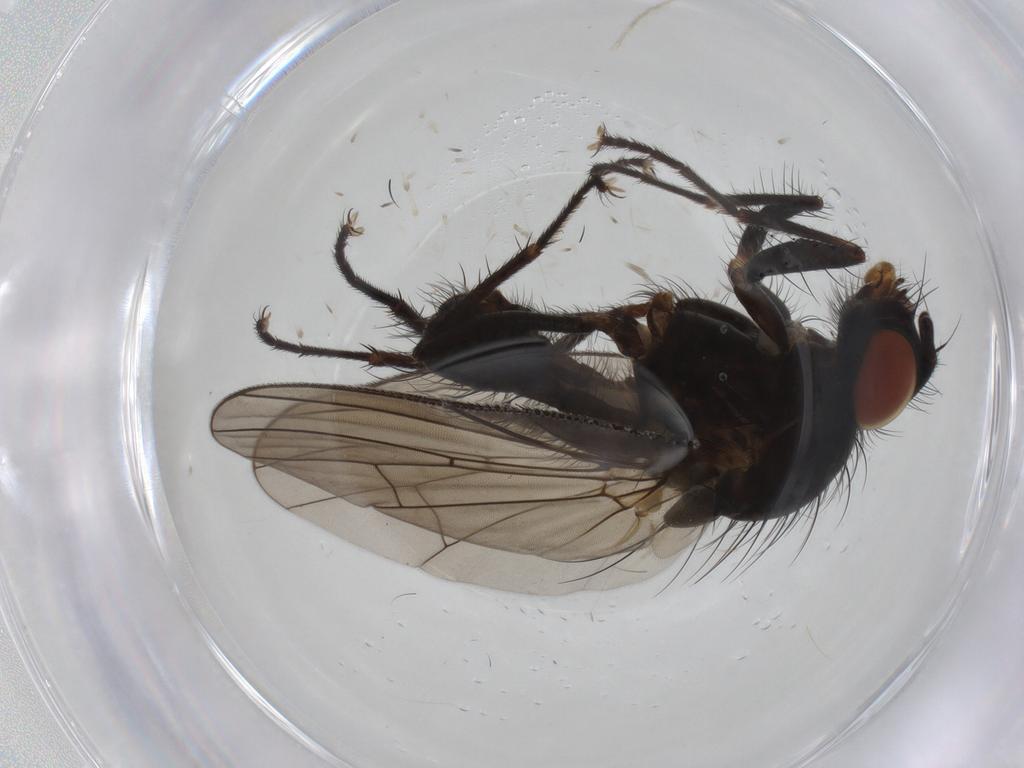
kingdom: Animalia
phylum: Arthropoda
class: Insecta
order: Diptera
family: Anthomyiidae
